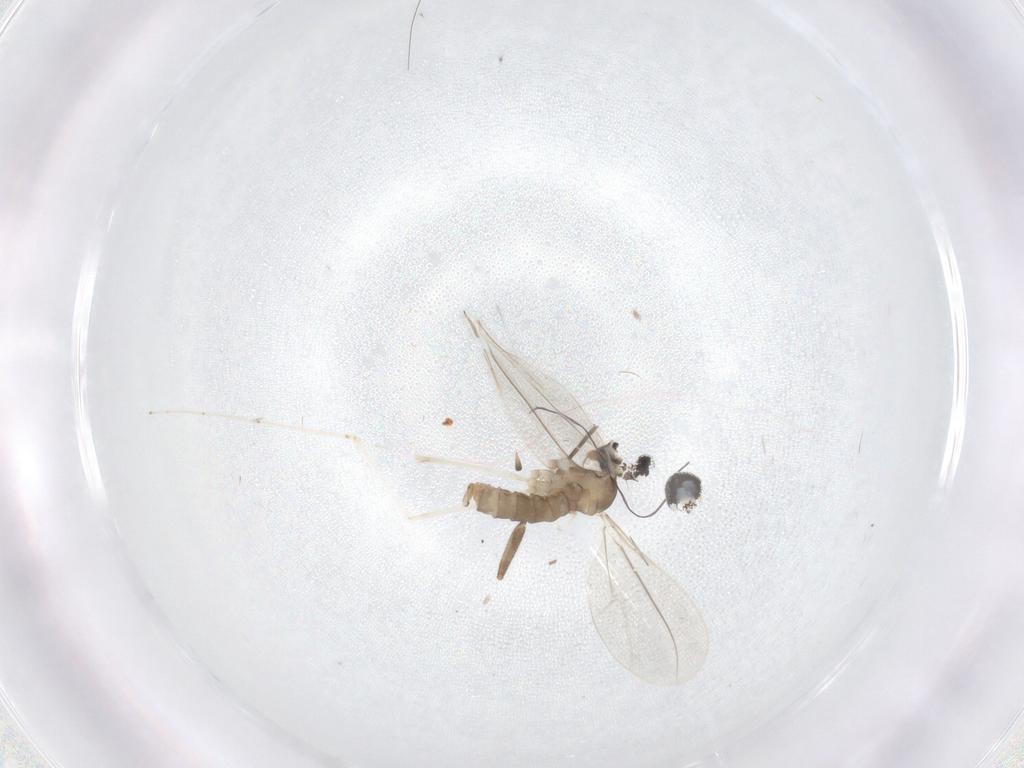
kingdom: Animalia
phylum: Arthropoda
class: Insecta
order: Diptera
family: Cecidomyiidae
